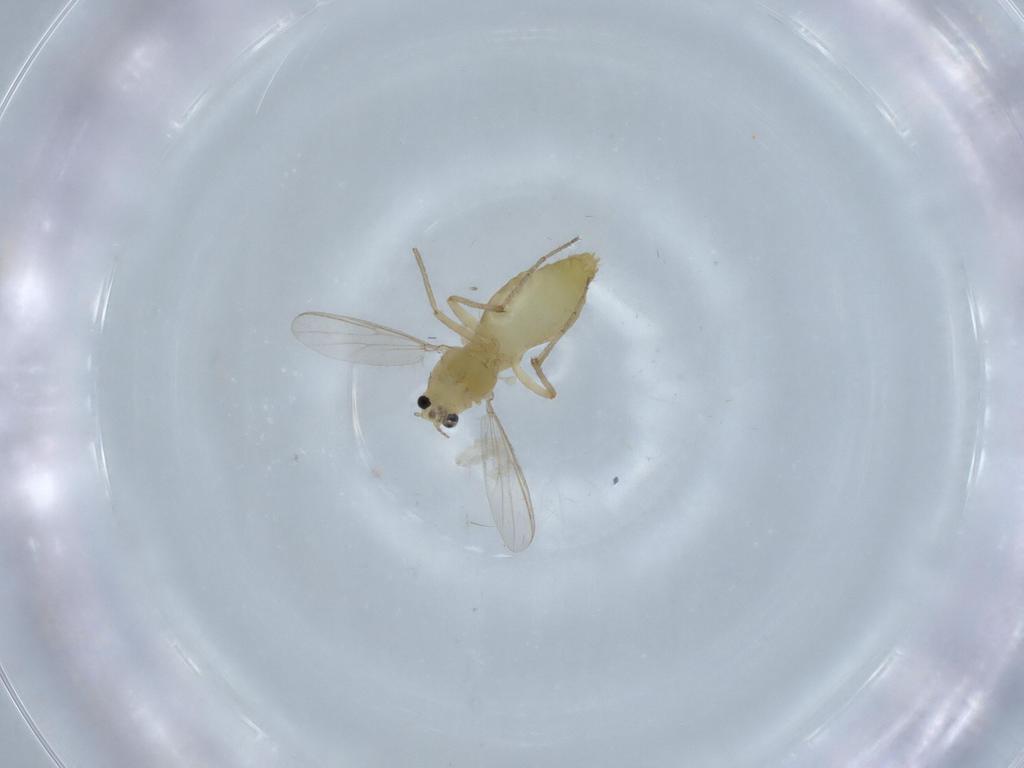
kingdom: Animalia
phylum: Arthropoda
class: Insecta
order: Diptera
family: Chironomidae
